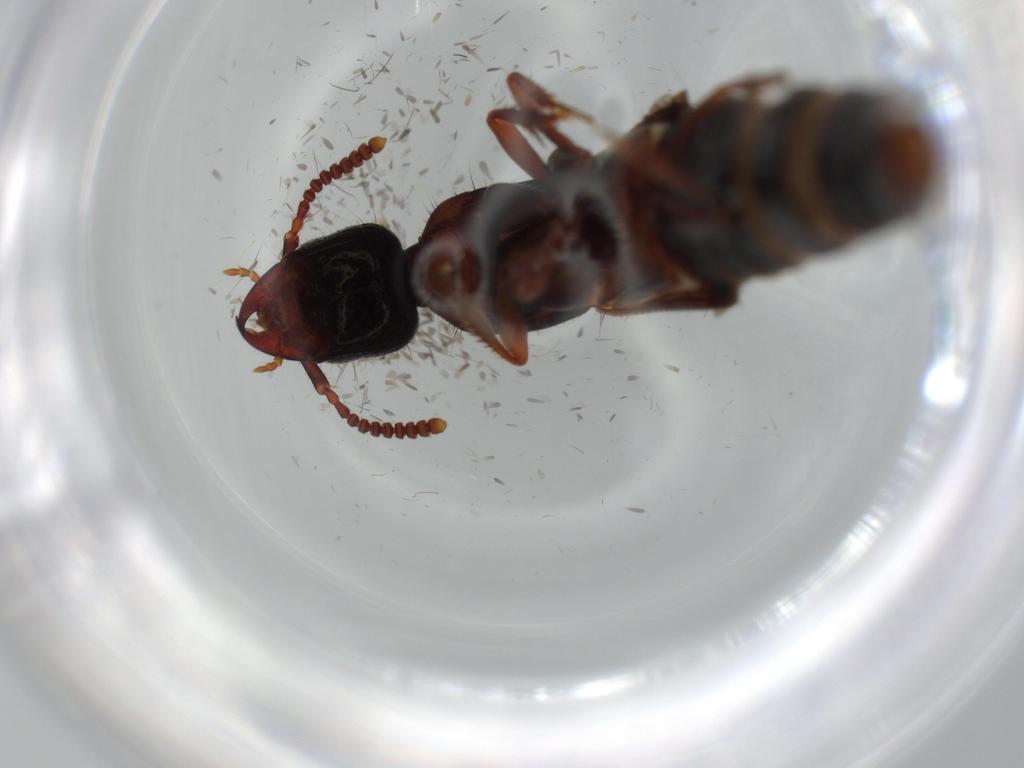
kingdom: Animalia
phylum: Arthropoda
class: Insecta
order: Coleoptera
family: Staphylinidae
